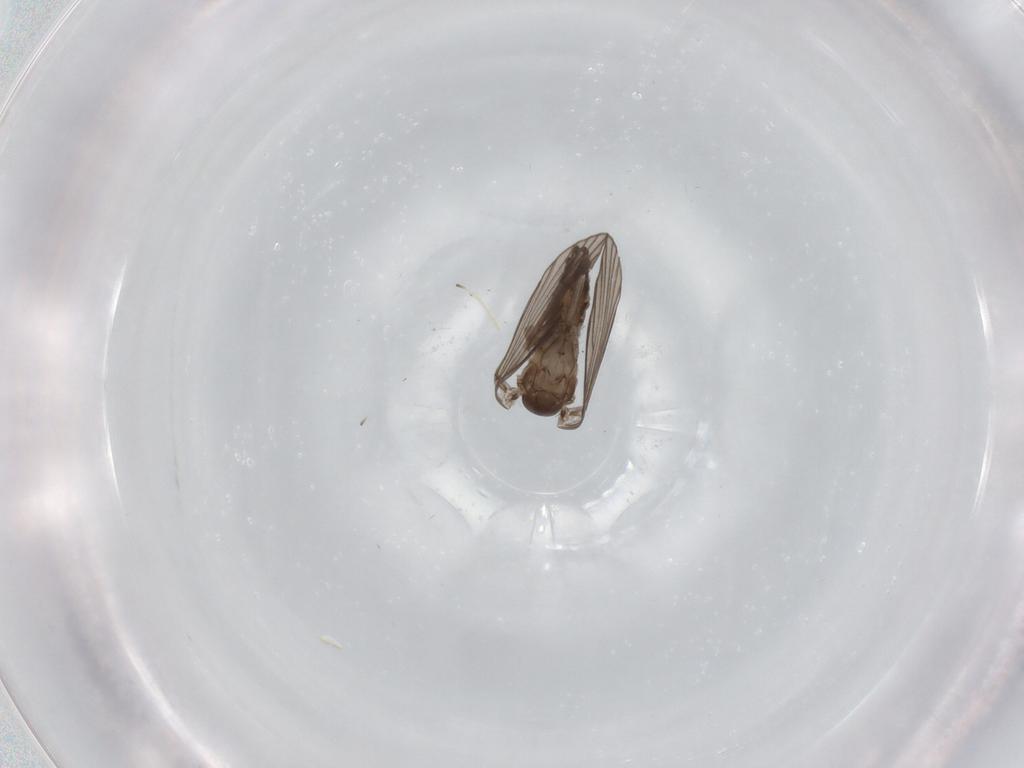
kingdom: Animalia
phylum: Arthropoda
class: Insecta
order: Diptera
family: Psychodidae
